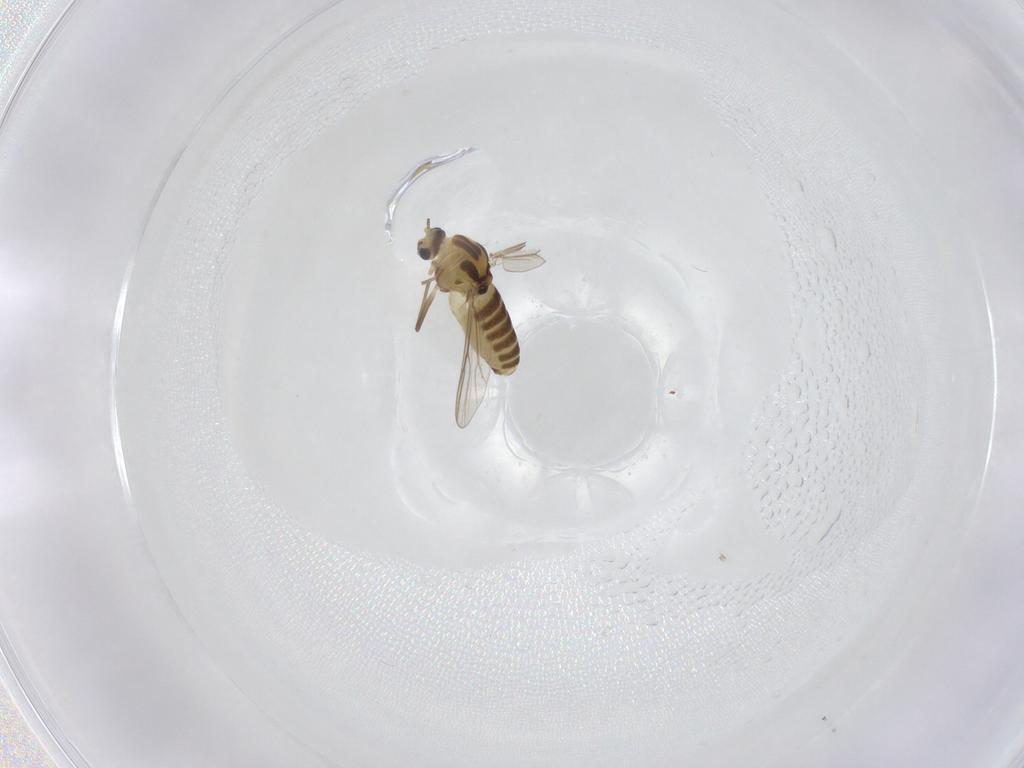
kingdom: Animalia
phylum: Arthropoda
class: Insecta
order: Diptera
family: Chironomidae
